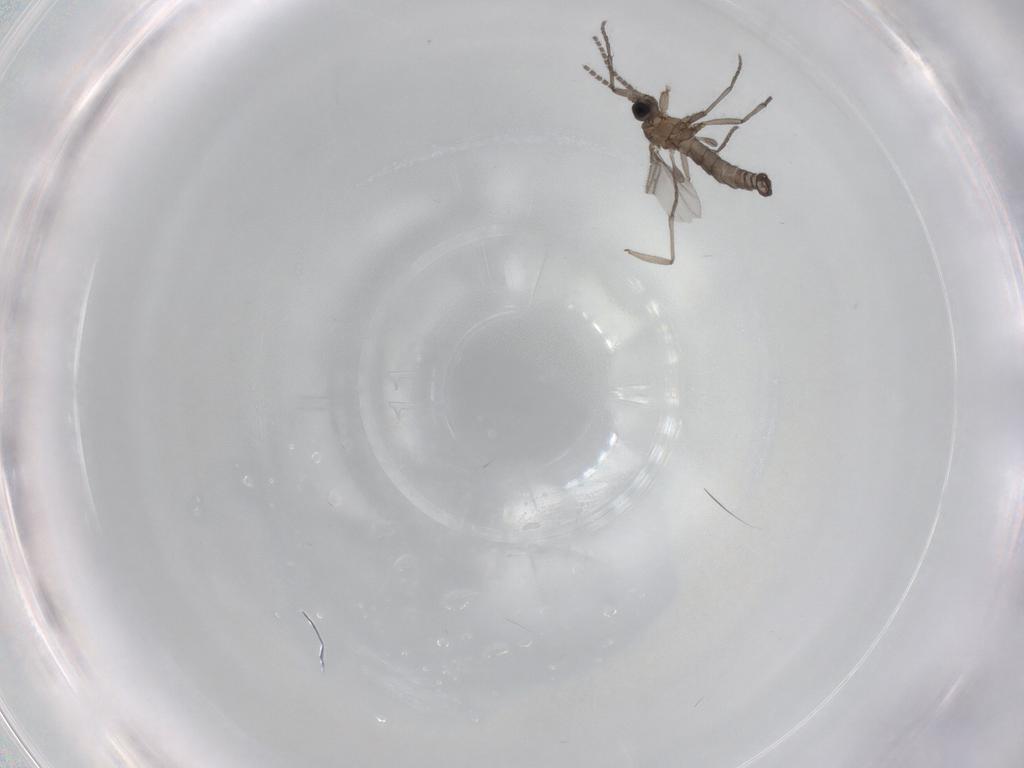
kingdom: Animalia
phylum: Arthropoda
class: Insecta
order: Diptera
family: Sciaridae
